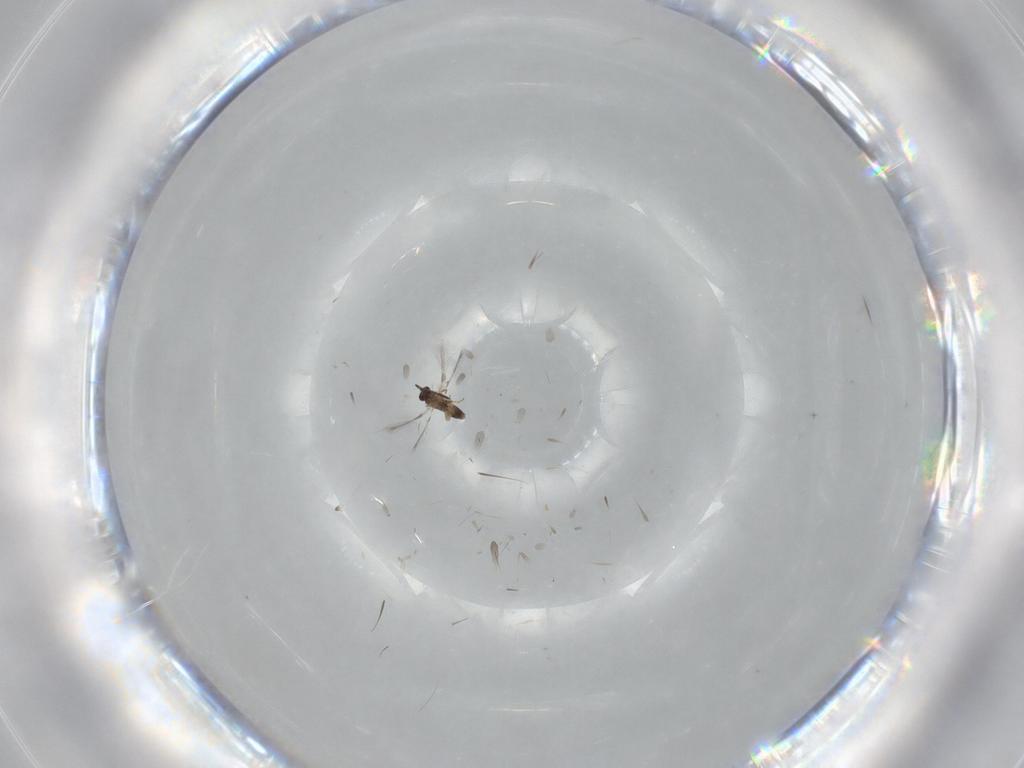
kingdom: Animalia
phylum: Arthropoda
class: Insecta
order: Hymenoptera
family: Mymaridae
